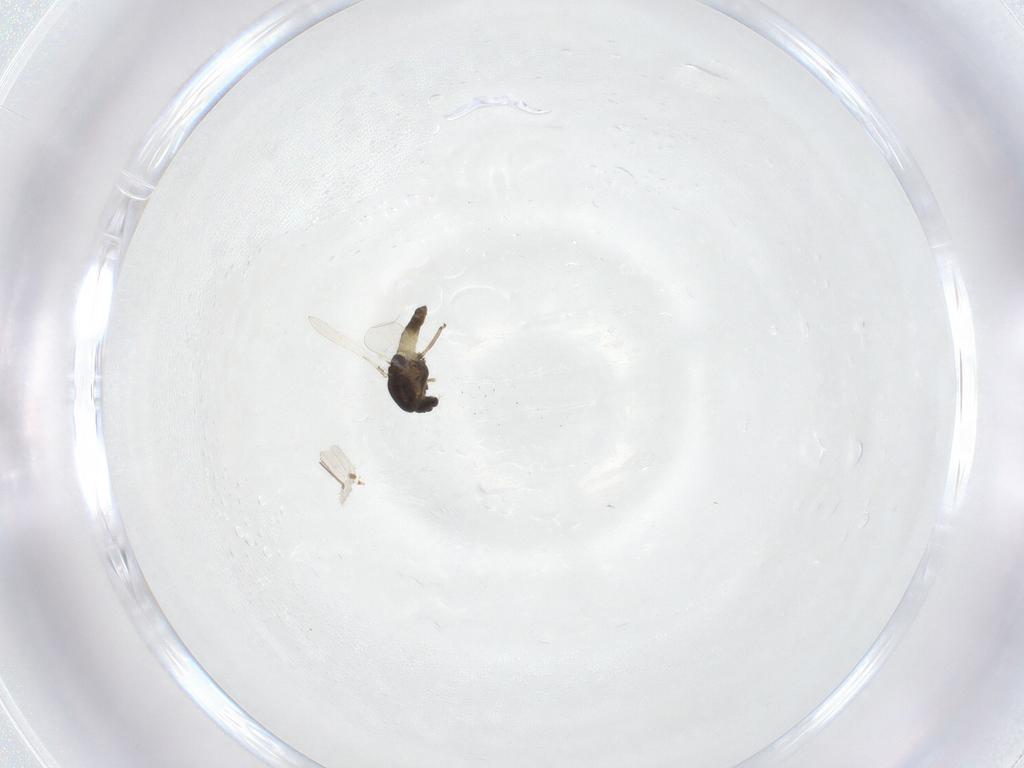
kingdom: Animalia
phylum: Arthropoda
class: Insecta
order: Diptera
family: Chironomidae
